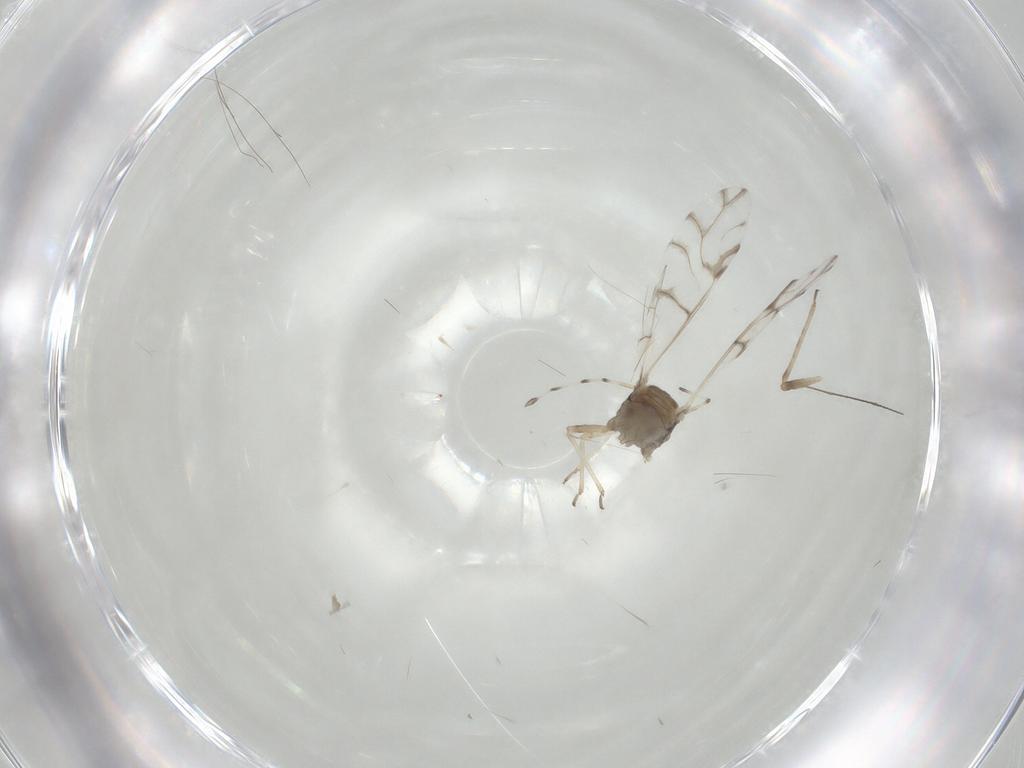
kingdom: Animalia
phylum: Arthropoda
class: Insecta
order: Hemiptera
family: Aphididae
